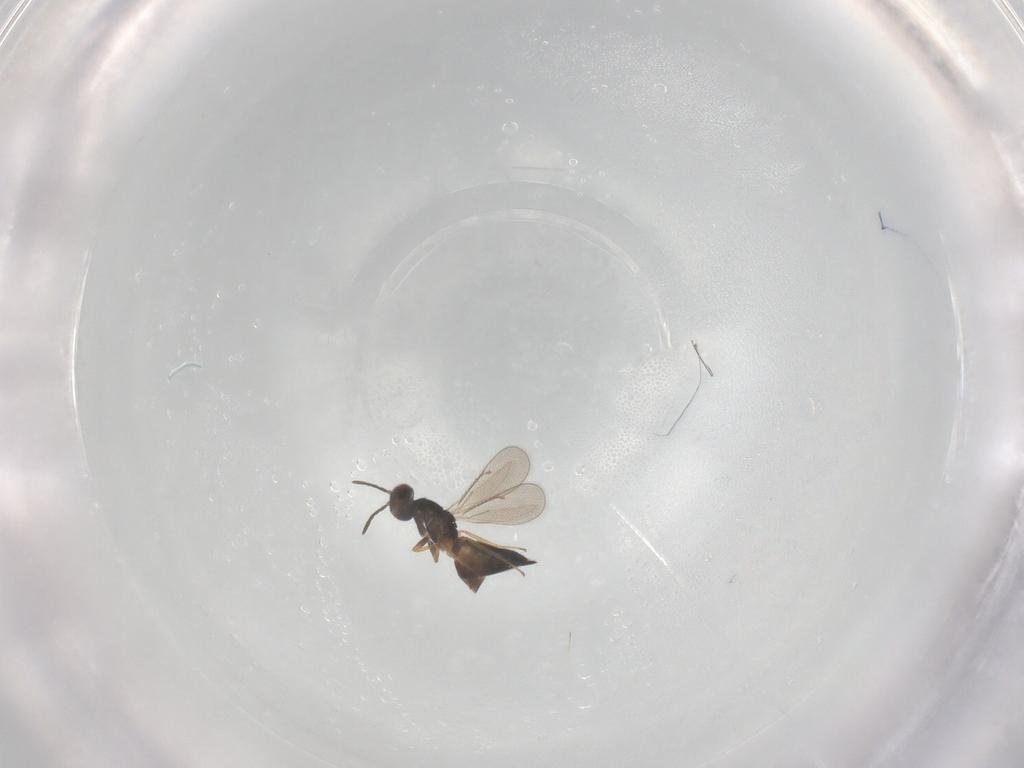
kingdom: Animalia
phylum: Arthropoda
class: Insecta
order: Hymenoptera
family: Eulophidae
